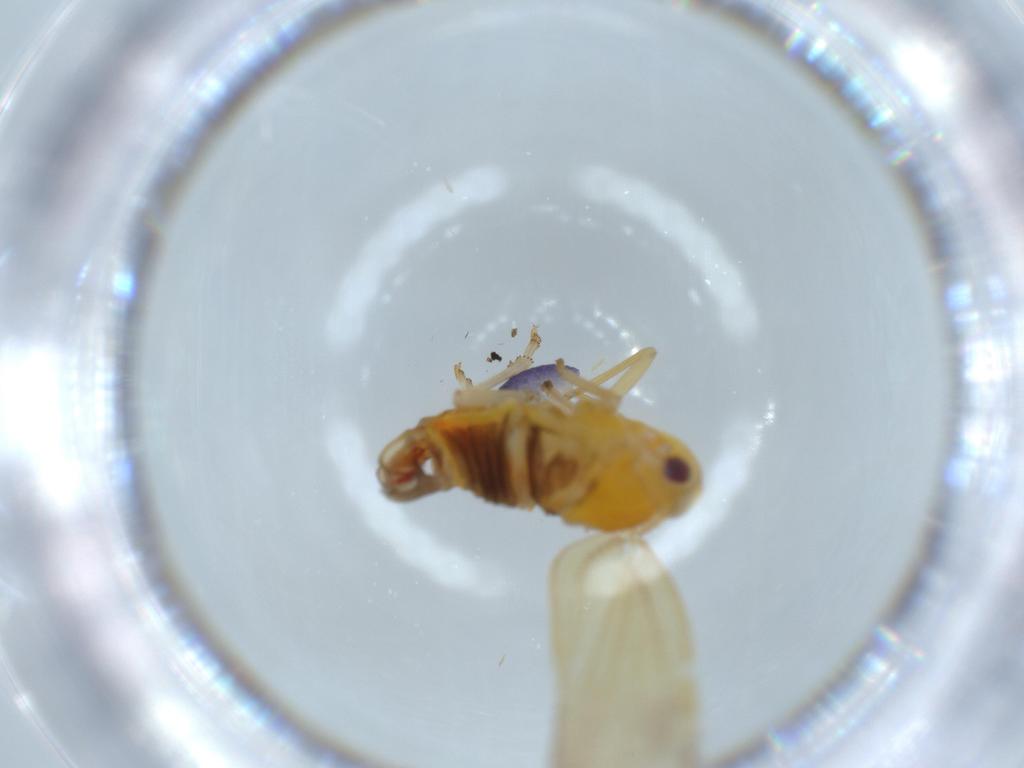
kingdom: Animalia
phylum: Arthropoda
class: Insecta
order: Hemiptera
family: Derbidae
